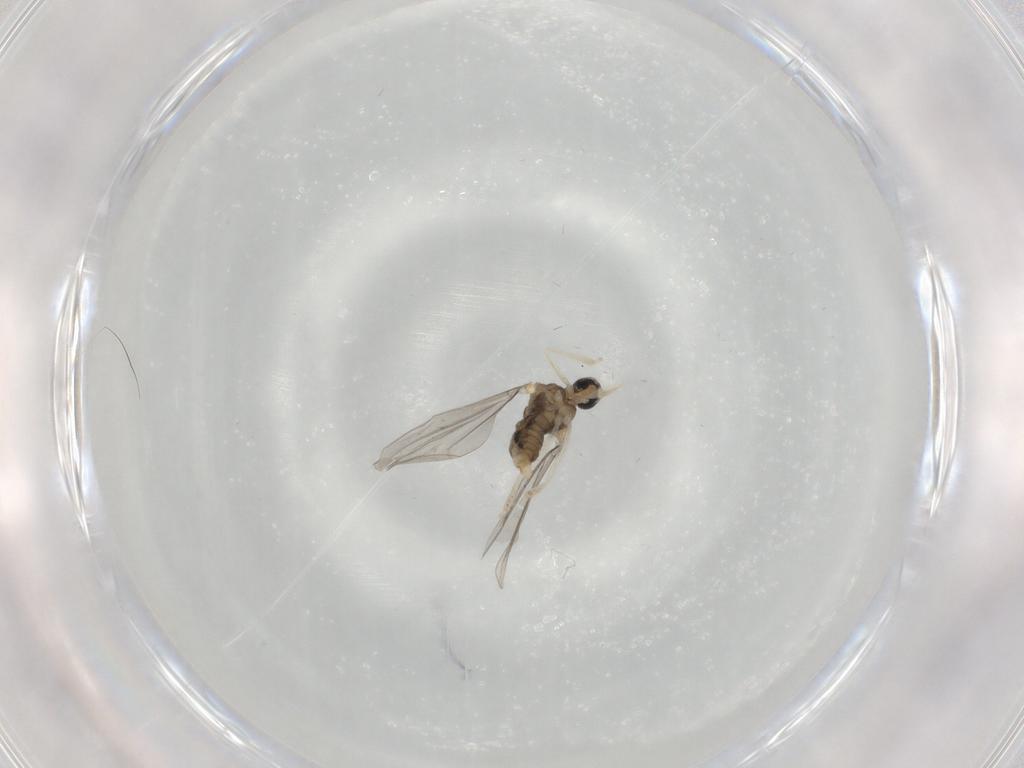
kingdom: Animalia
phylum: Arthropoda
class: Insecta
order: Diptera
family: Cecidomyiidae
